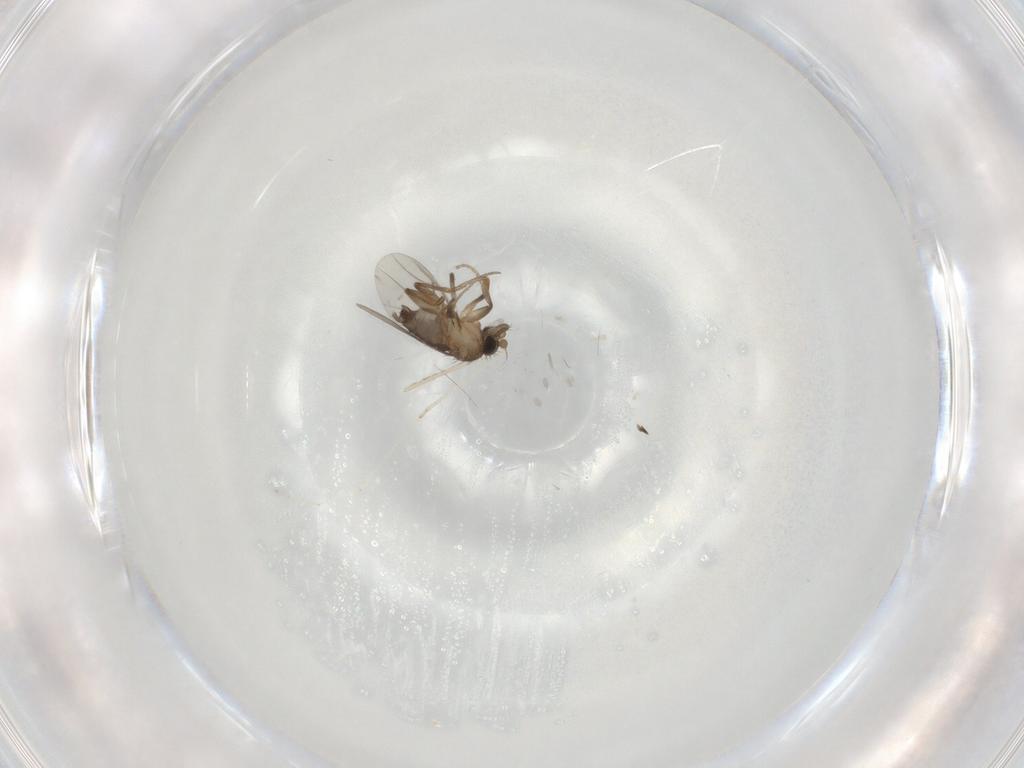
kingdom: Animalia
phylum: Arthropoda
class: Insecta
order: Diptera
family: Phoridae
